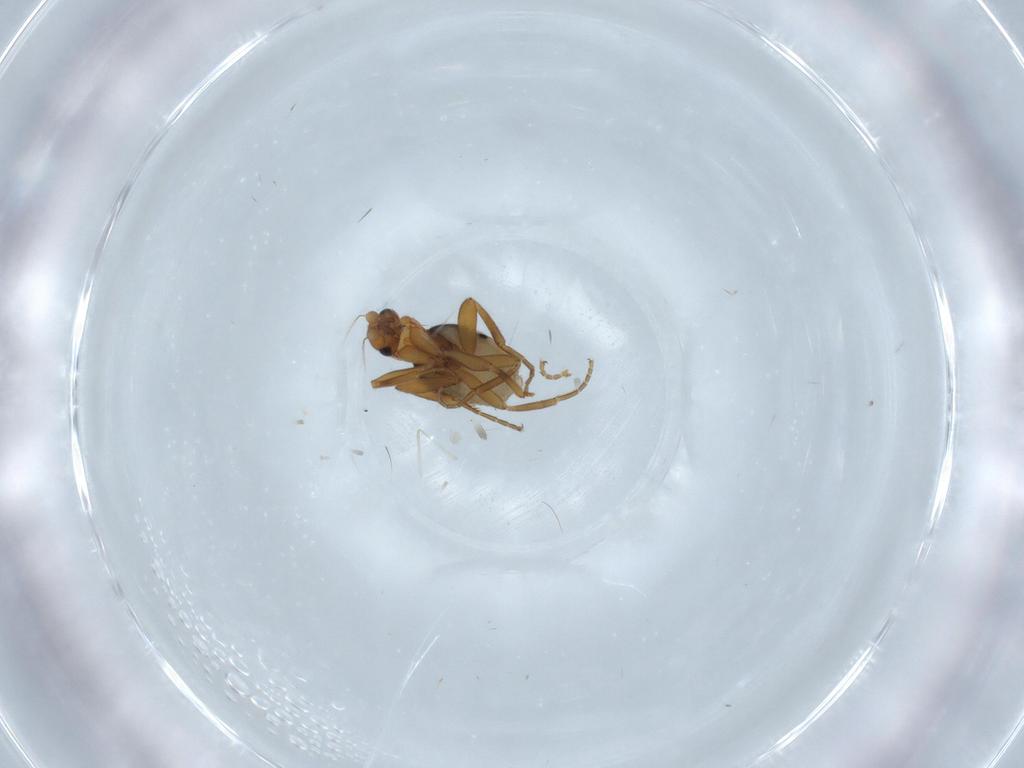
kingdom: Animalia
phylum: Arthropoda
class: Insecta
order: Diptera
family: Phoridae
